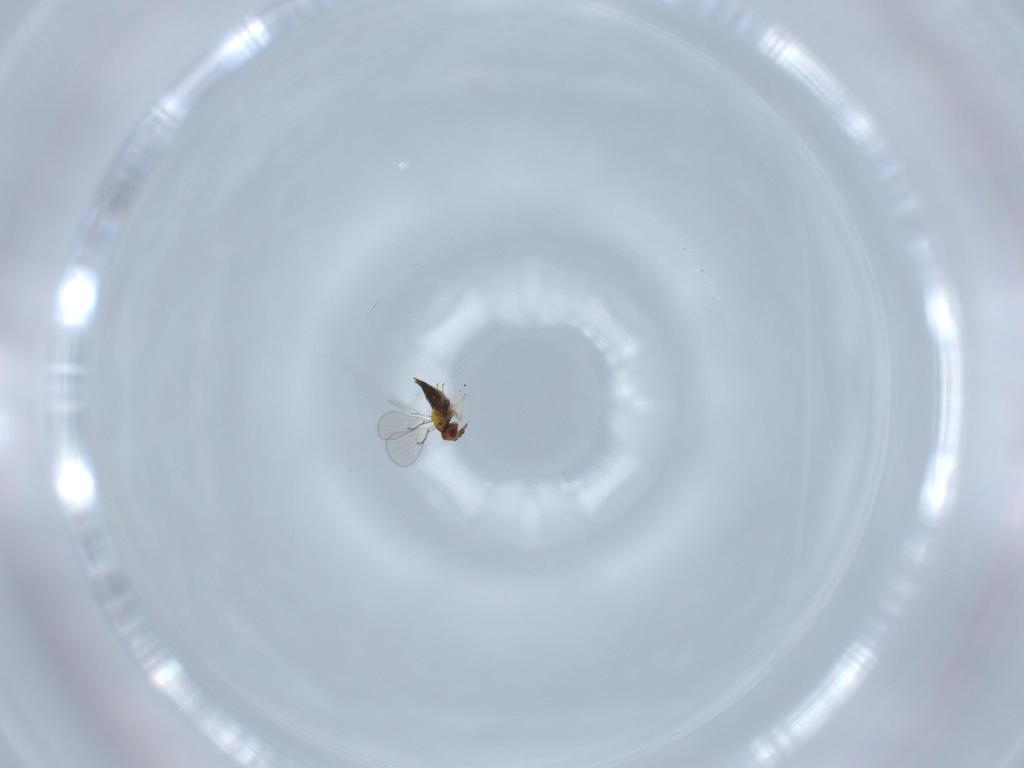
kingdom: Animalia
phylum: Arthropoda
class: Insecta
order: Hymenoptera
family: Trichogrammatidae
